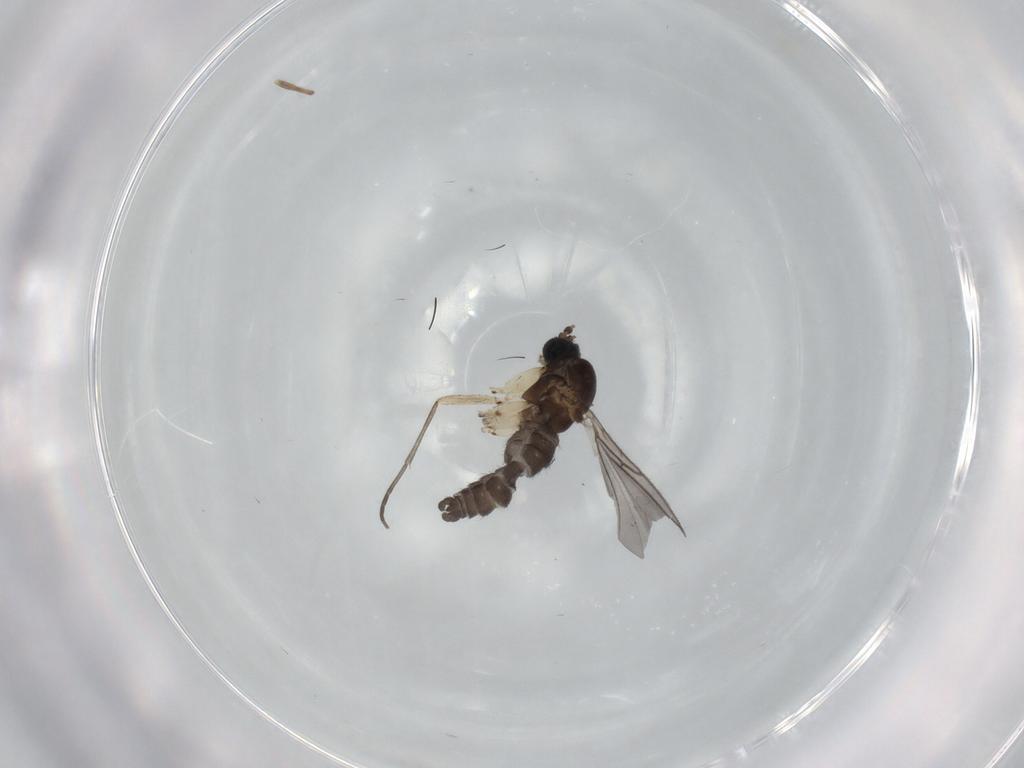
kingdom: Animalia
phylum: Arthropoda
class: Insecta
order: Diptera
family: Sciaridae
